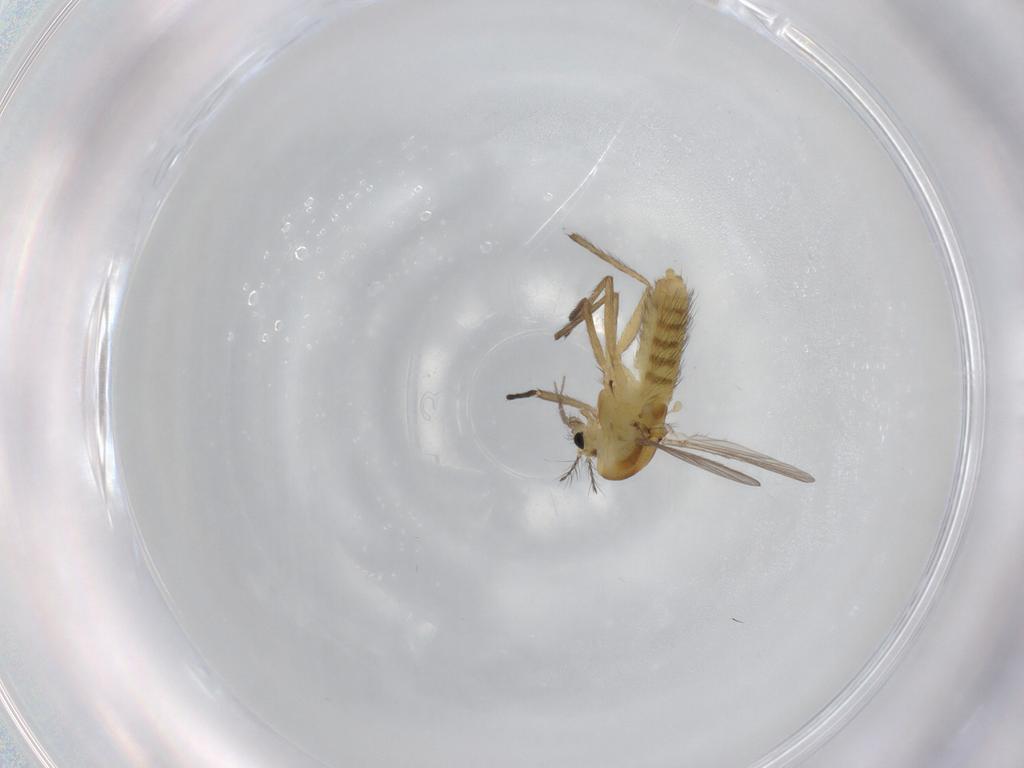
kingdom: Animalia
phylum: Arthropoda
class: Insecta
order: Diptera
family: Chironomidae
